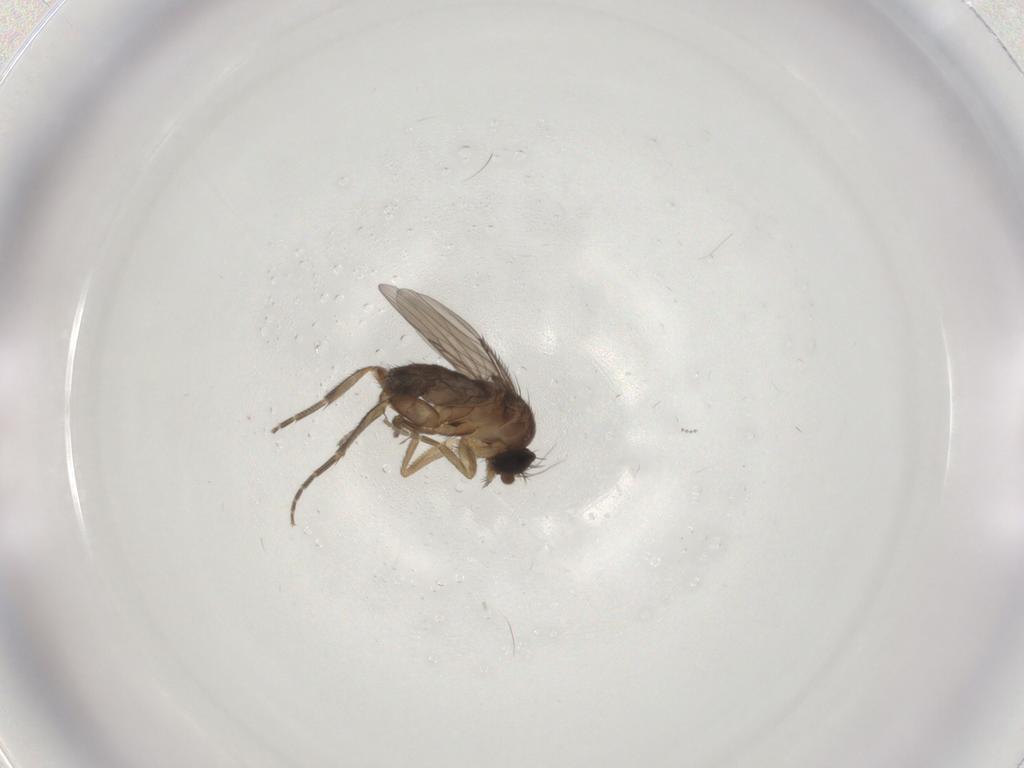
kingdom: Animalia
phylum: Arthropoda
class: Insecta
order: Diptera
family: Phoridae
